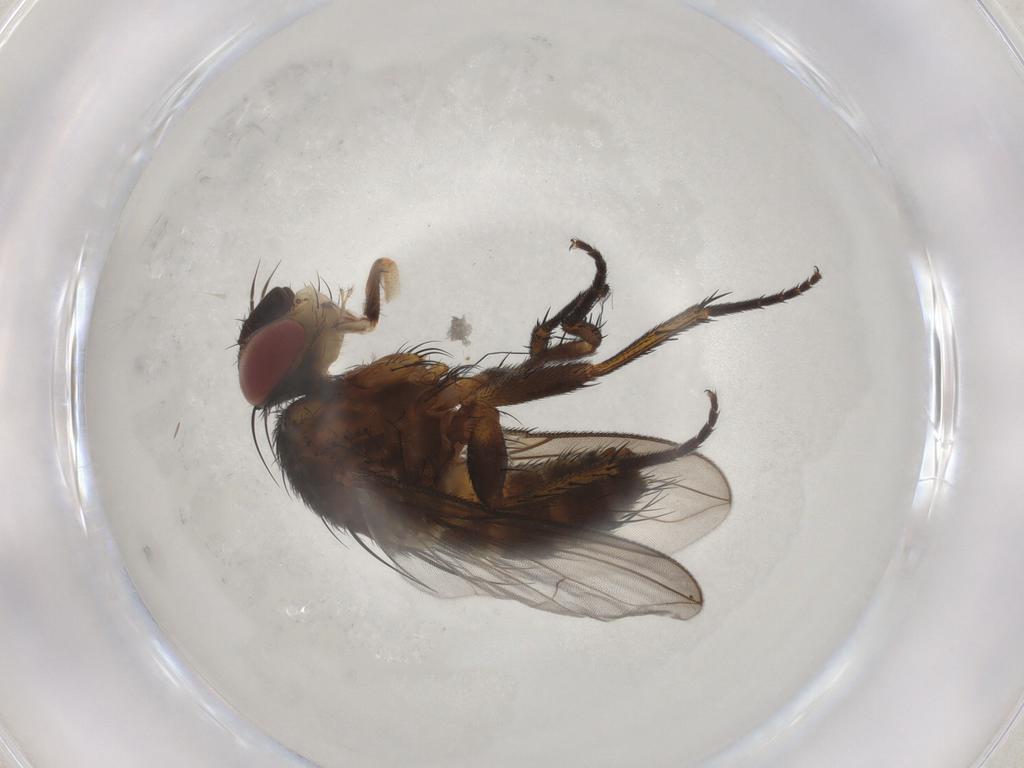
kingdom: Animalia
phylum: Arthropoda
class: Insecta
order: Diptera
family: Tachinidae
